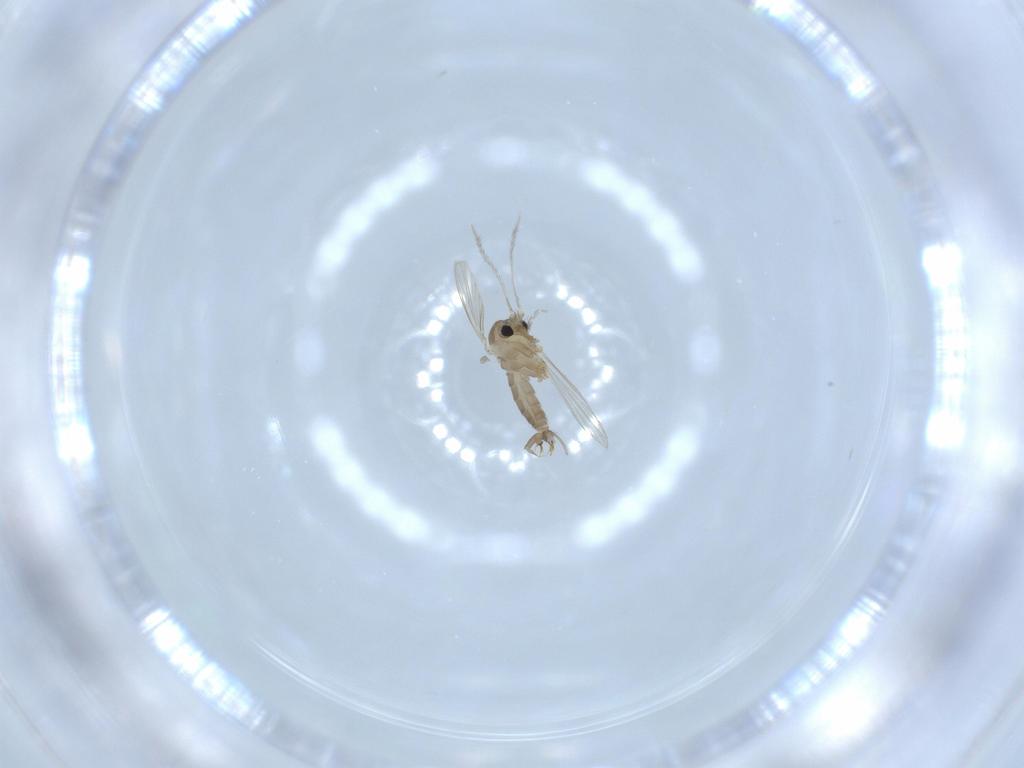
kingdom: Animalia
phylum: Arthropoda
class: Insecta
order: Diptera
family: Psychodidae
